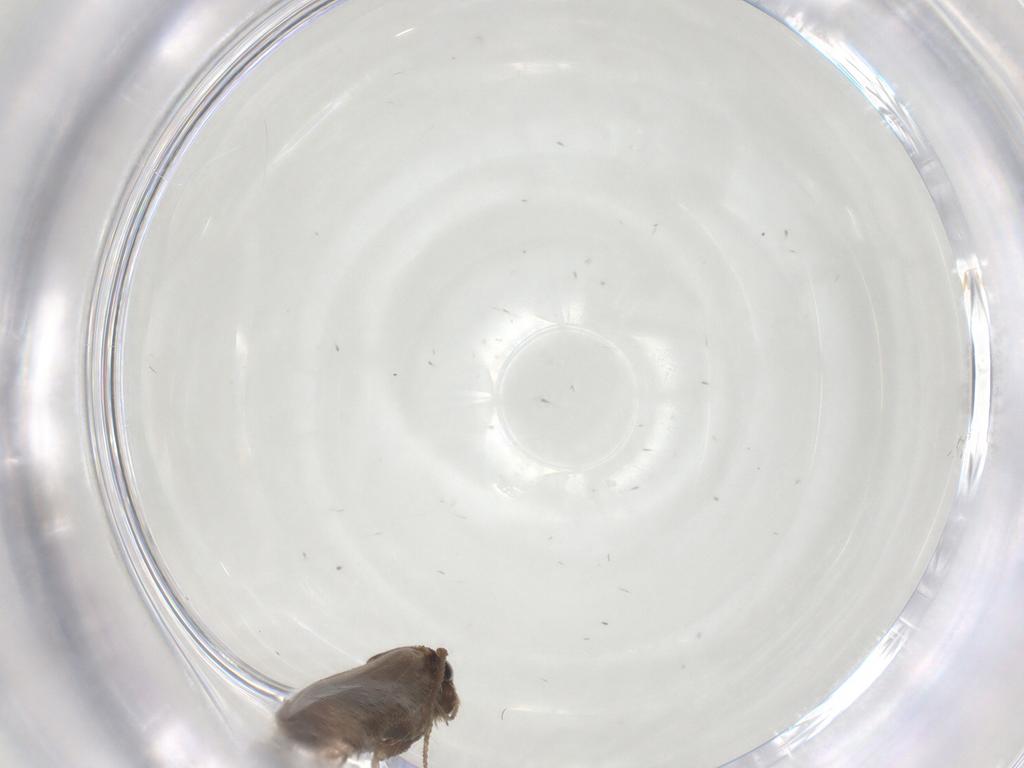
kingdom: Animalia
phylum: Arthropoda
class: Insecta
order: Lepidoptera
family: Gelechiidae
